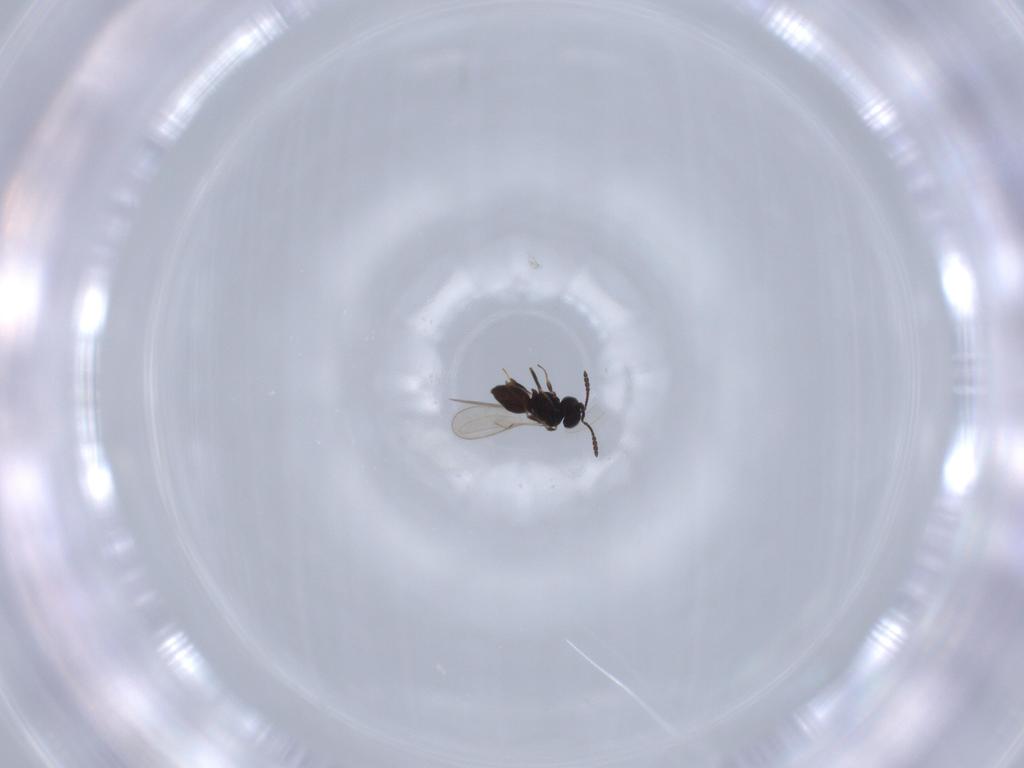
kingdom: Animalia
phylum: Arthropoda
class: Insecta
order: Hymenoptera
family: Scelionidae
